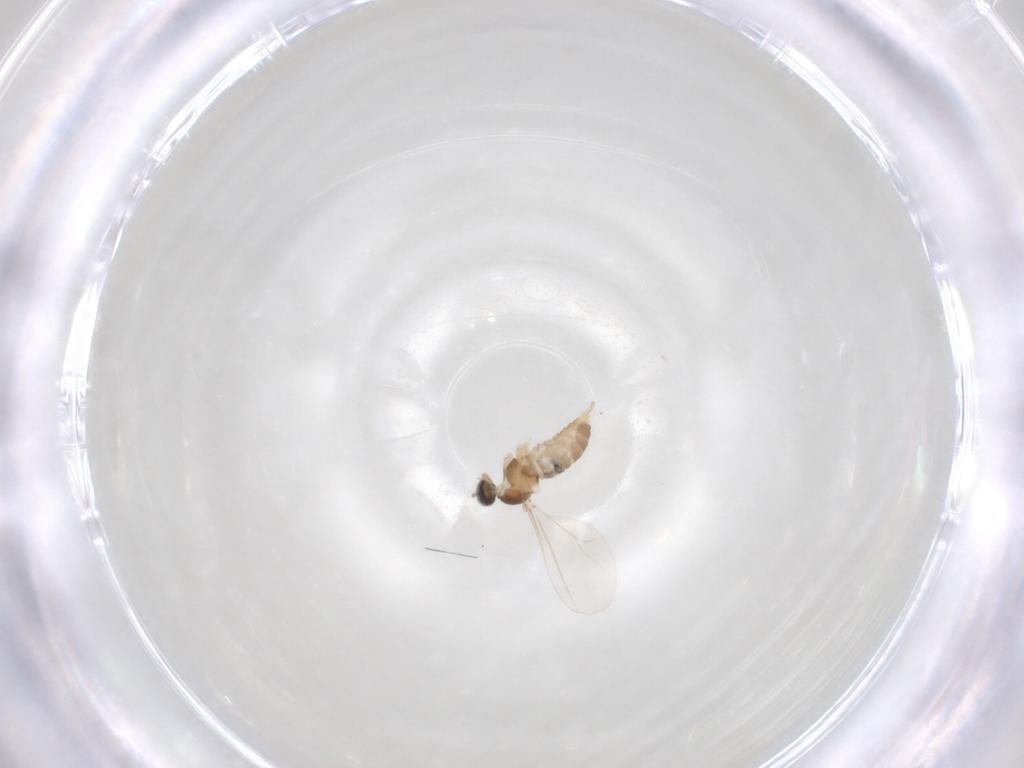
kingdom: Animalia
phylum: Arthropoda
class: Insecta
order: Diptera
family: Cecidomyiidae
